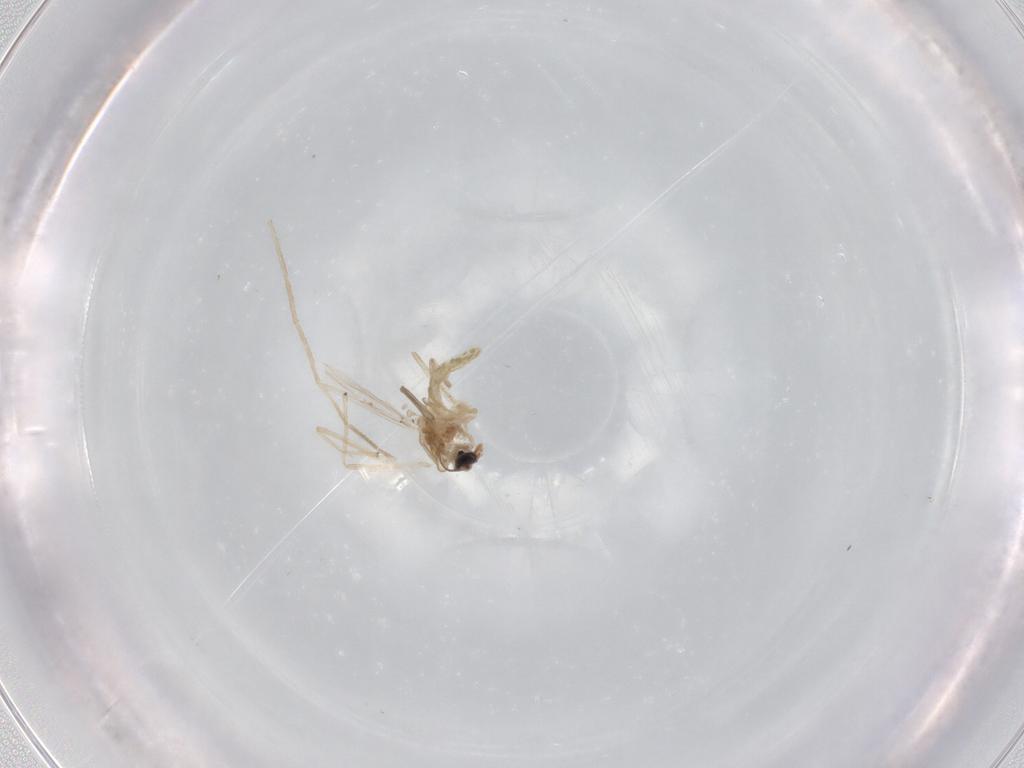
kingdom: Animalia
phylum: Arthropoda
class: Insecta
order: Diptera
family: Chironomidae
